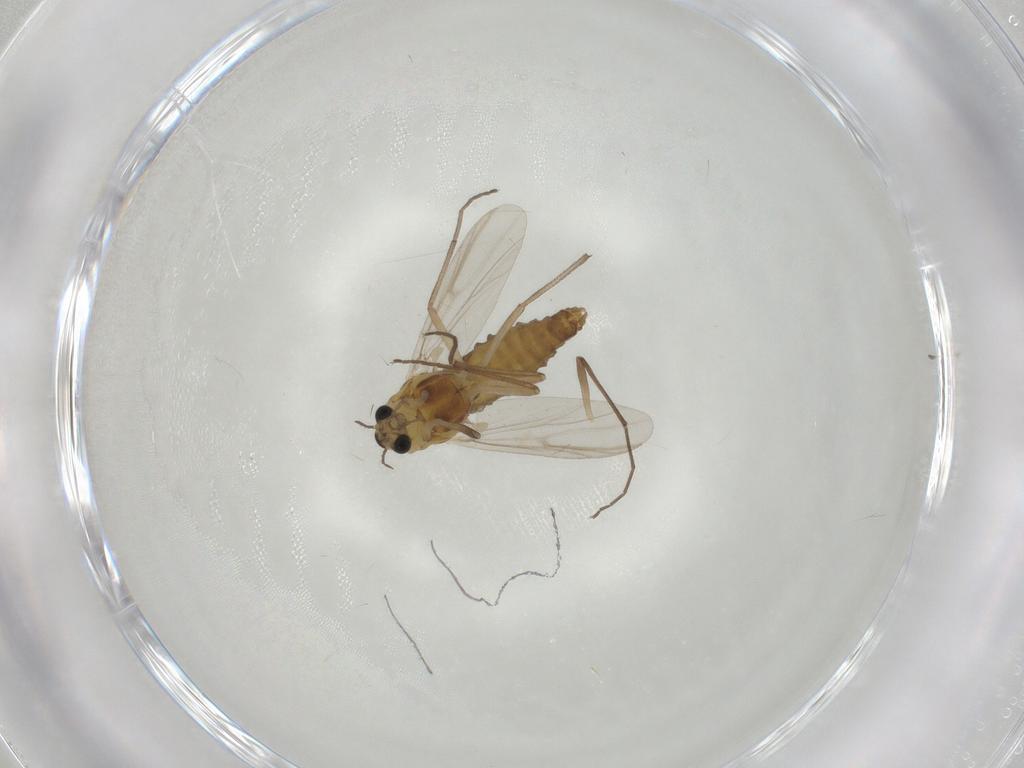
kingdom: Animalia
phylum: Arthropoda
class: Insecta
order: Diptera
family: Chironomidae
